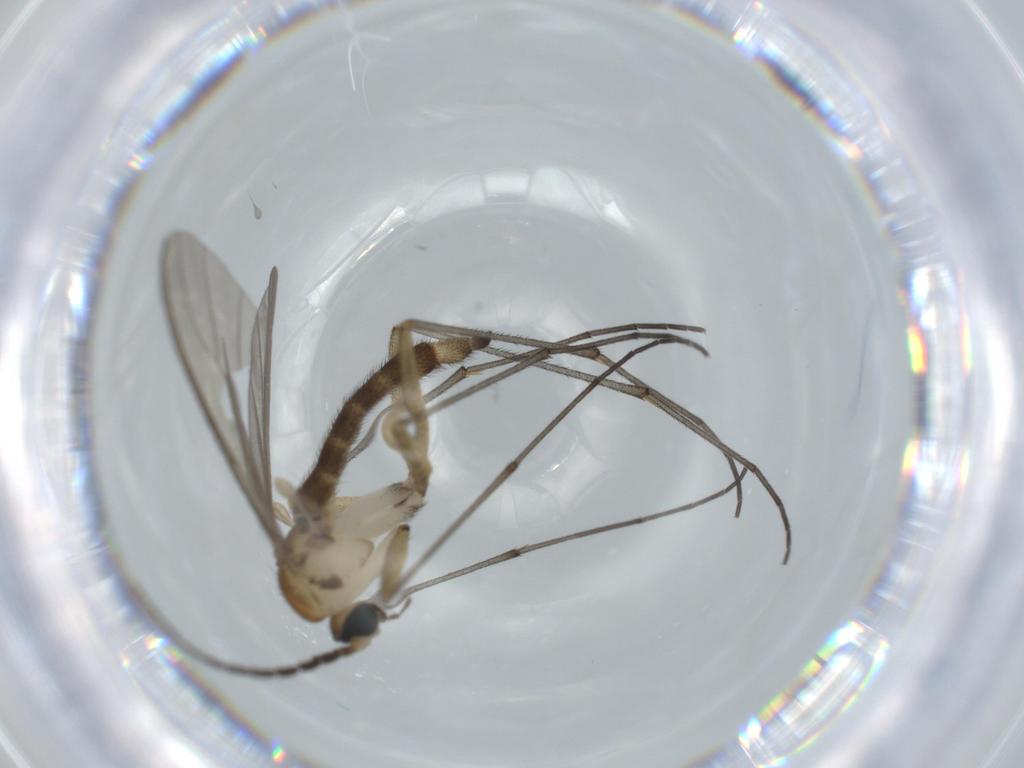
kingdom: Animalia
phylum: Arthropoda
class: Insecta
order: Diptera
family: Sciaridae
